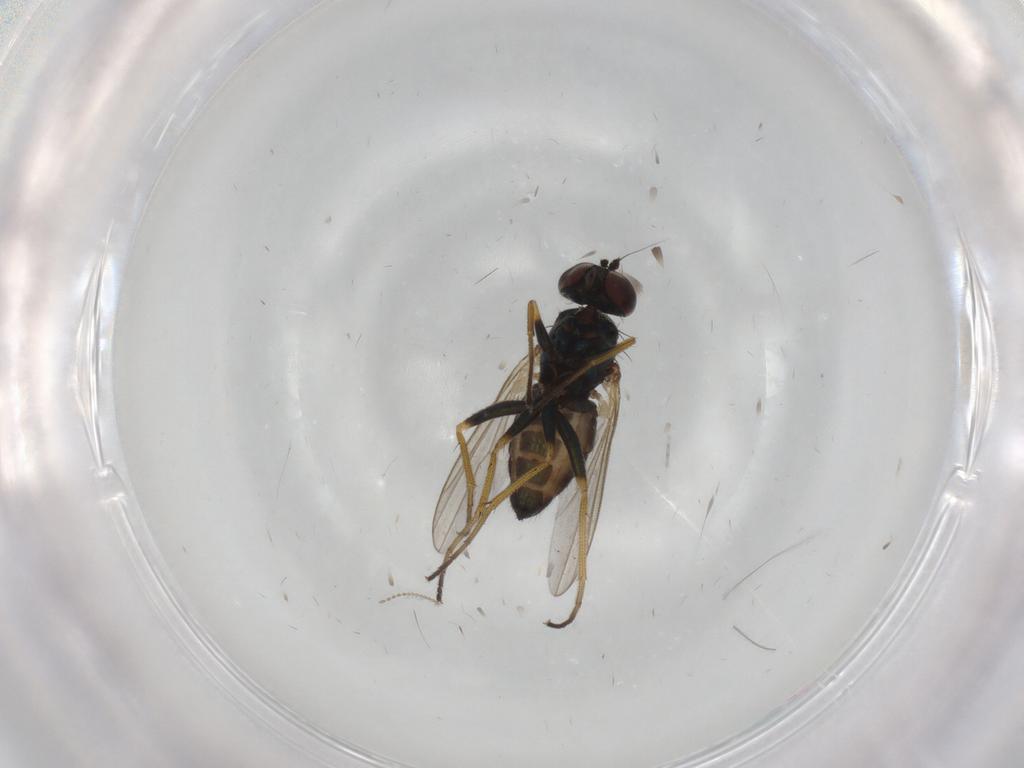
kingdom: Animalia
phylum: Arthropoda
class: Insecta
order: Diptera
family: Dolichopodidae
